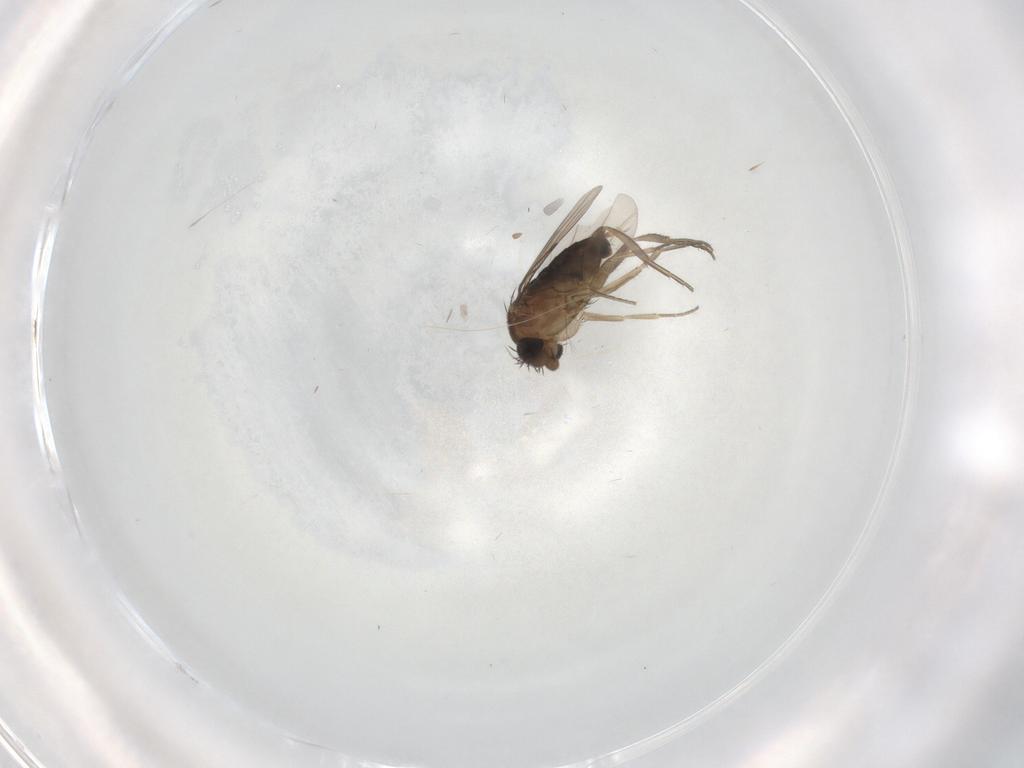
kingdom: Animalia
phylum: Arthropoda
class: Insecta
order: Diptera
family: Phoridae
